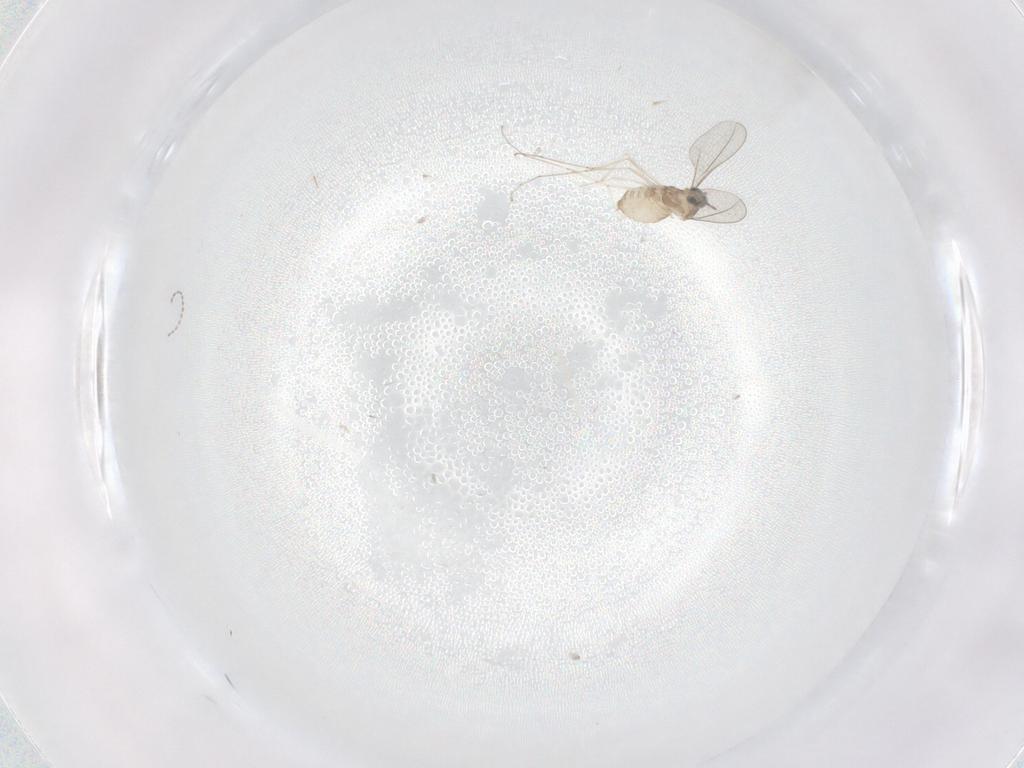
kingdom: Animalia
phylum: Arthropoda
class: Insecta
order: Diptera
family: Cecidomyiidae
